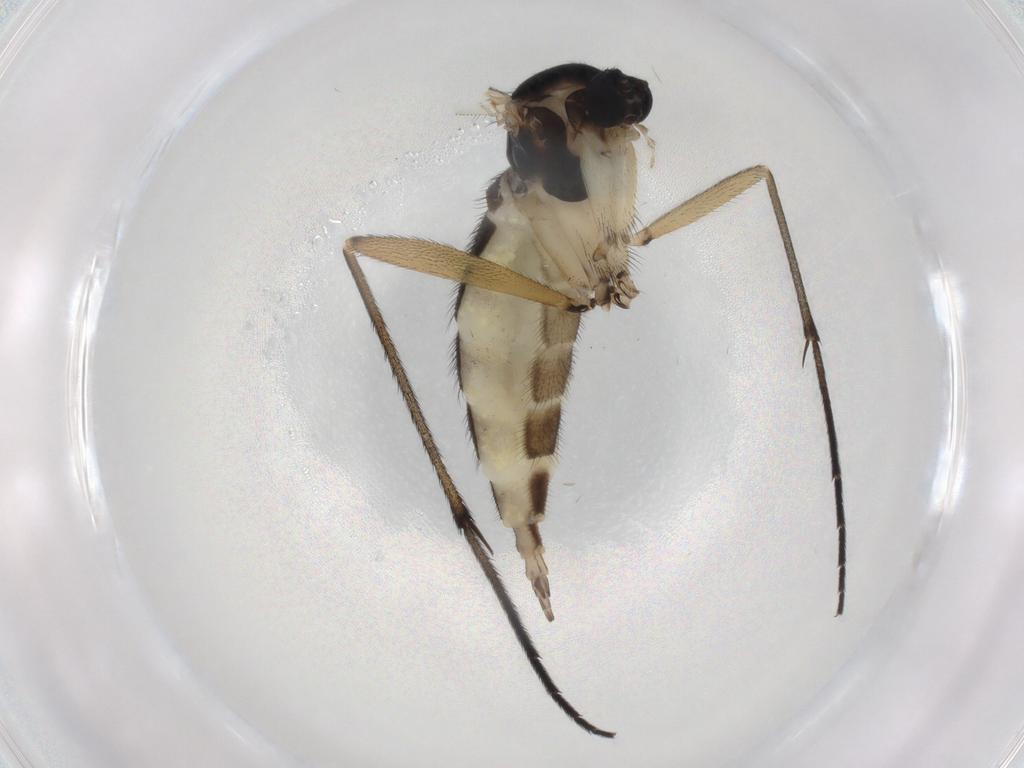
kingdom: Animalia
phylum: Arthropoda
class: Insecta
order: Diptera
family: Sciaridae
